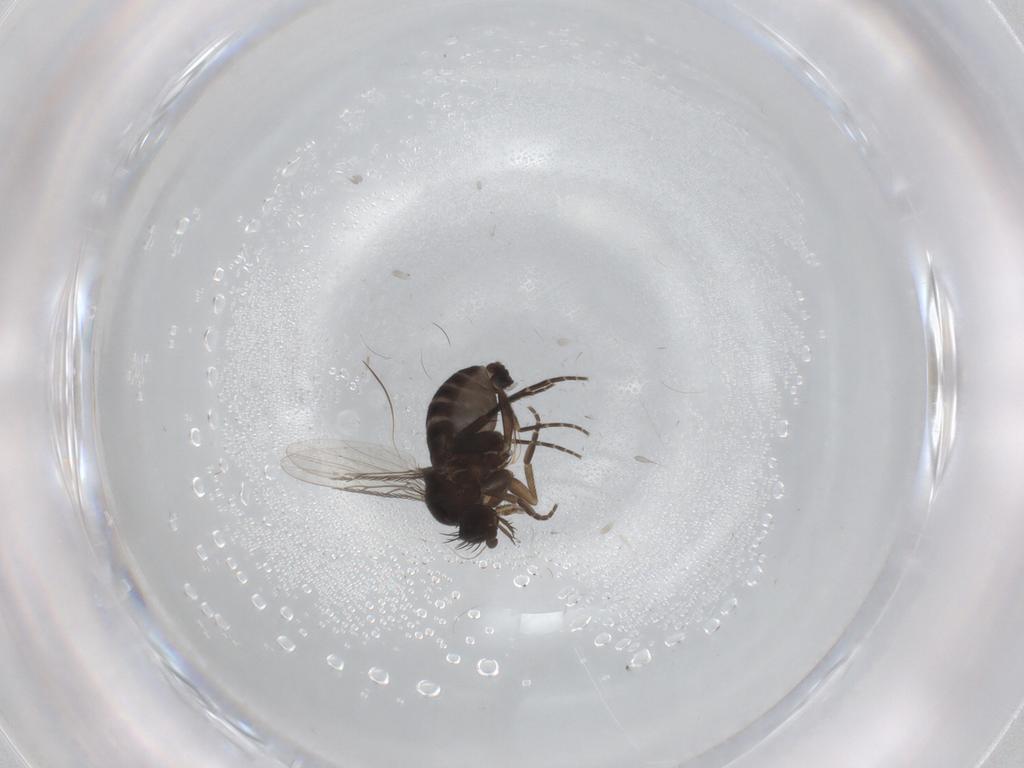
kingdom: Animalia
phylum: Arthropoda
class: Insecta
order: Diptera
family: Phoridae
